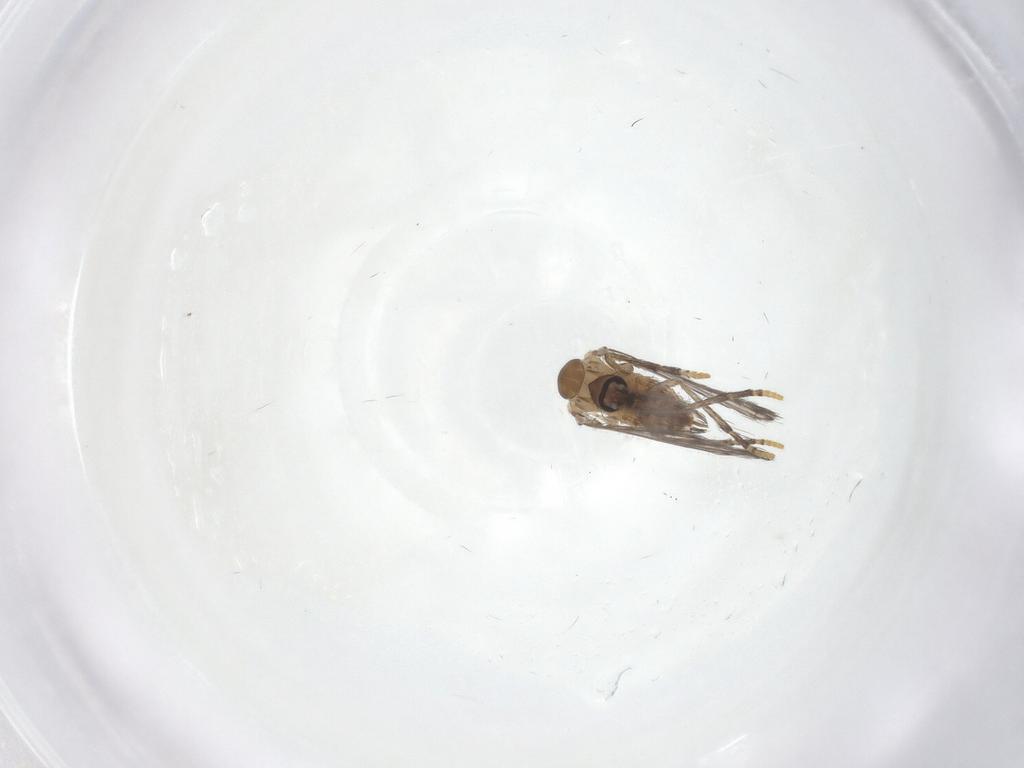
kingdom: Animalia
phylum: Arthropoda
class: Insecta
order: Diptera
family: Psychodidae
